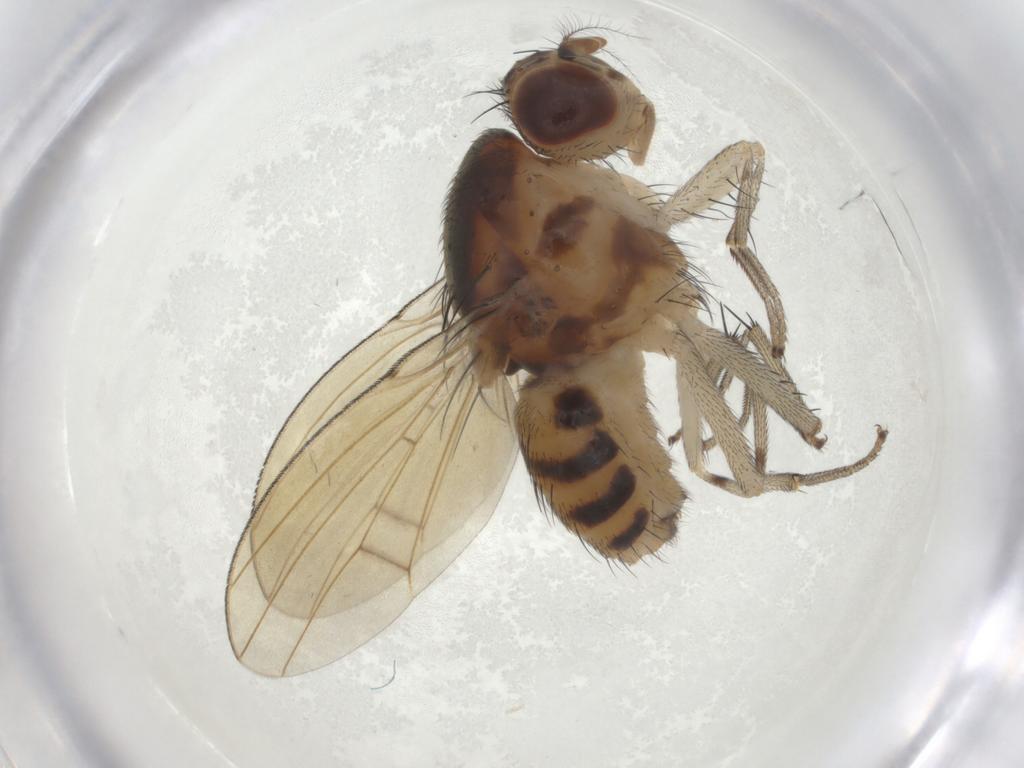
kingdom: Animalia
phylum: Arthropoda
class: Insecta
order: Diptera
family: Lauxaniidae
